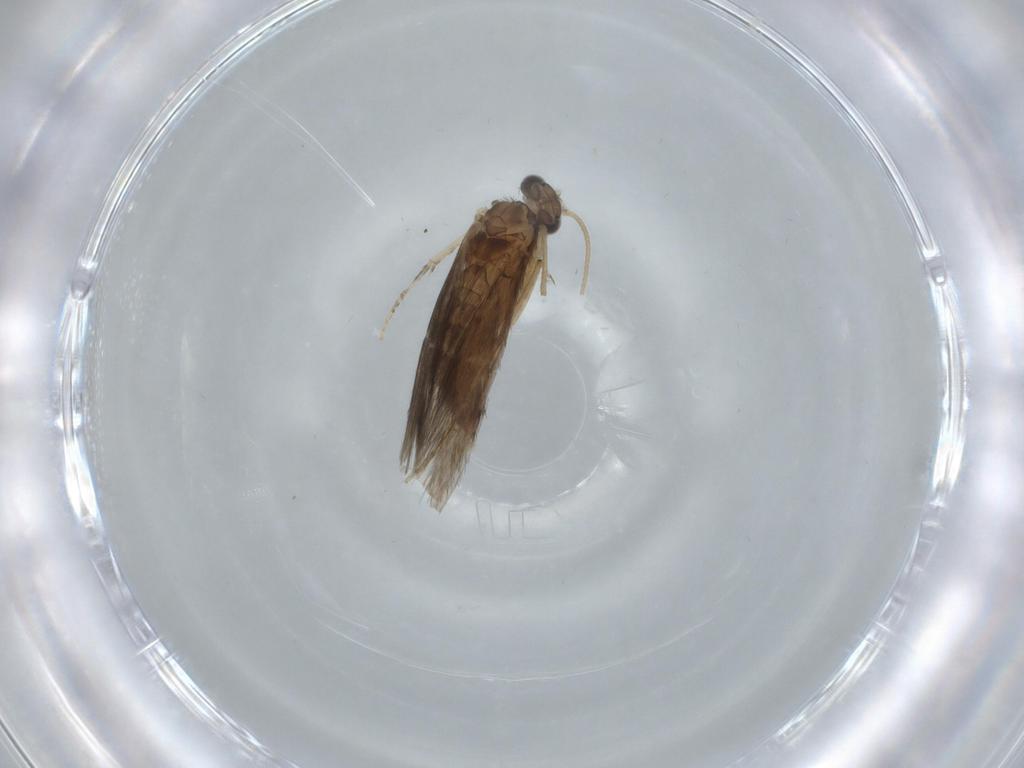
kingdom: Animalia
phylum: Arthropoda
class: Insecta
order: Trichoptera
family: Hydroptilidae
